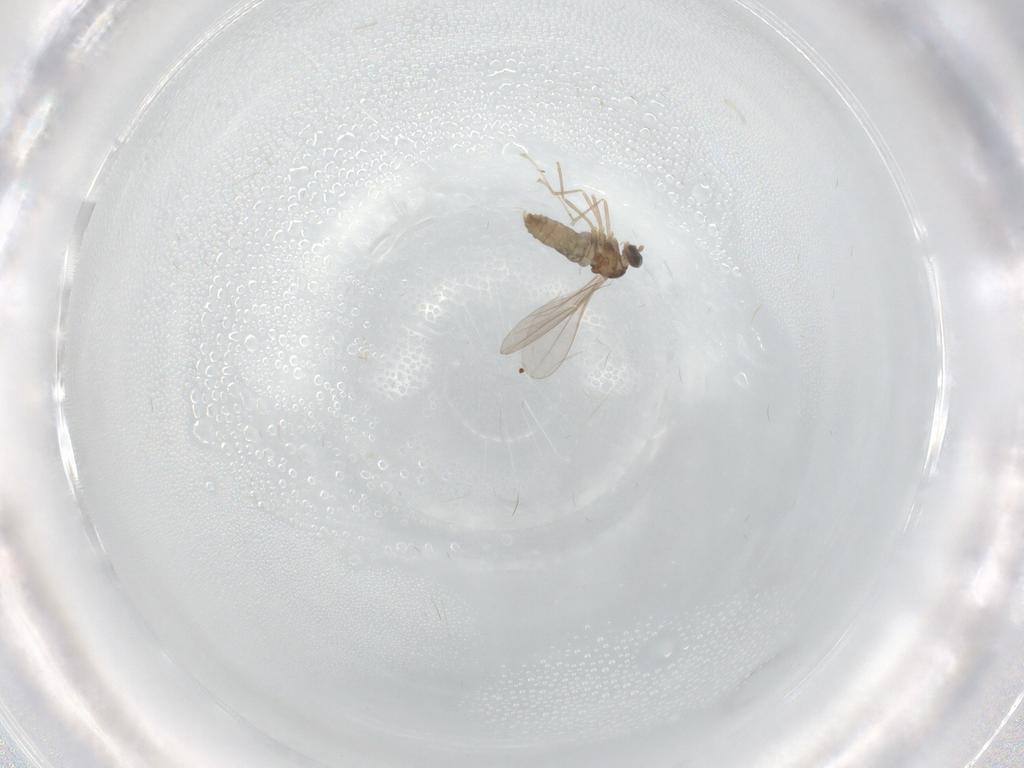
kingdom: Animalia
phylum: Arthropoda
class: Insecta
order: Diptera
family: Cecidomyiidae
